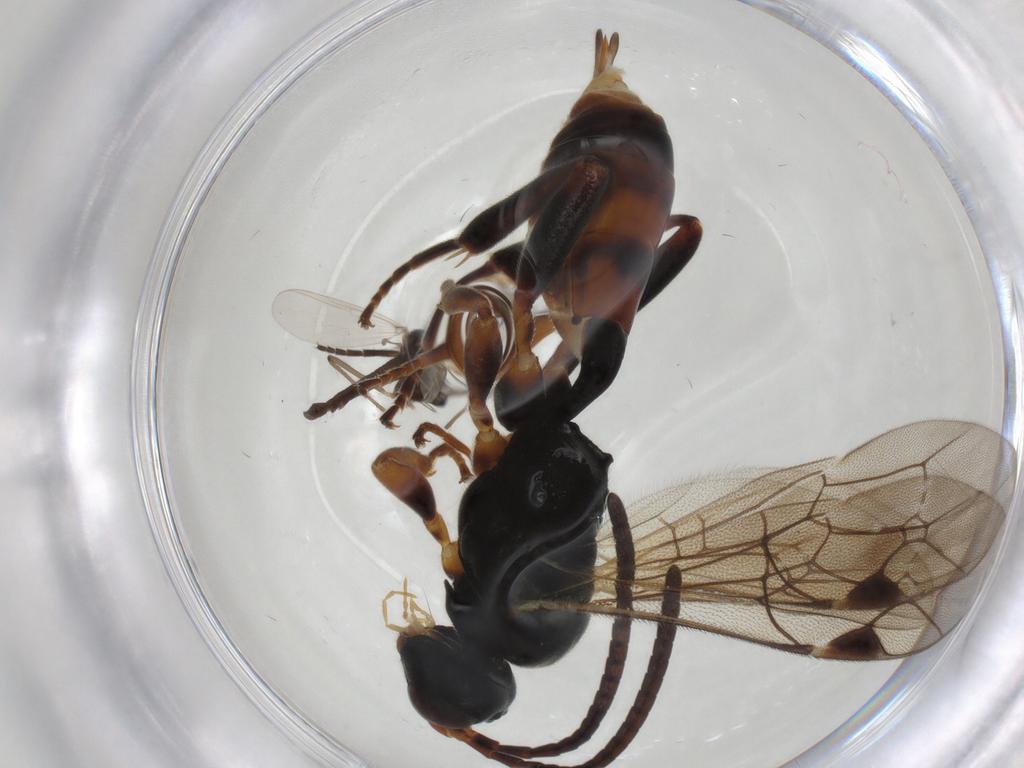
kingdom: Animalia
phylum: Arthropoda
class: Insecta
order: Diptera
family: Chironomidae
